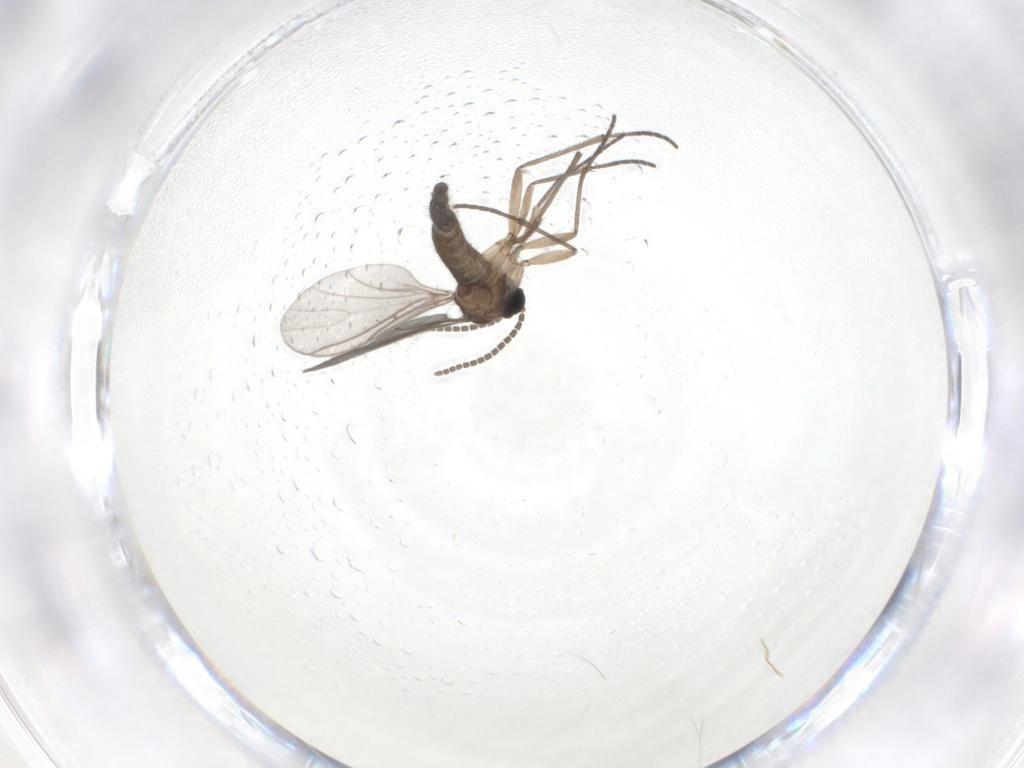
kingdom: Animalia
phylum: Arthropoda
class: Insecta
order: Diptera
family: Sciaridae
